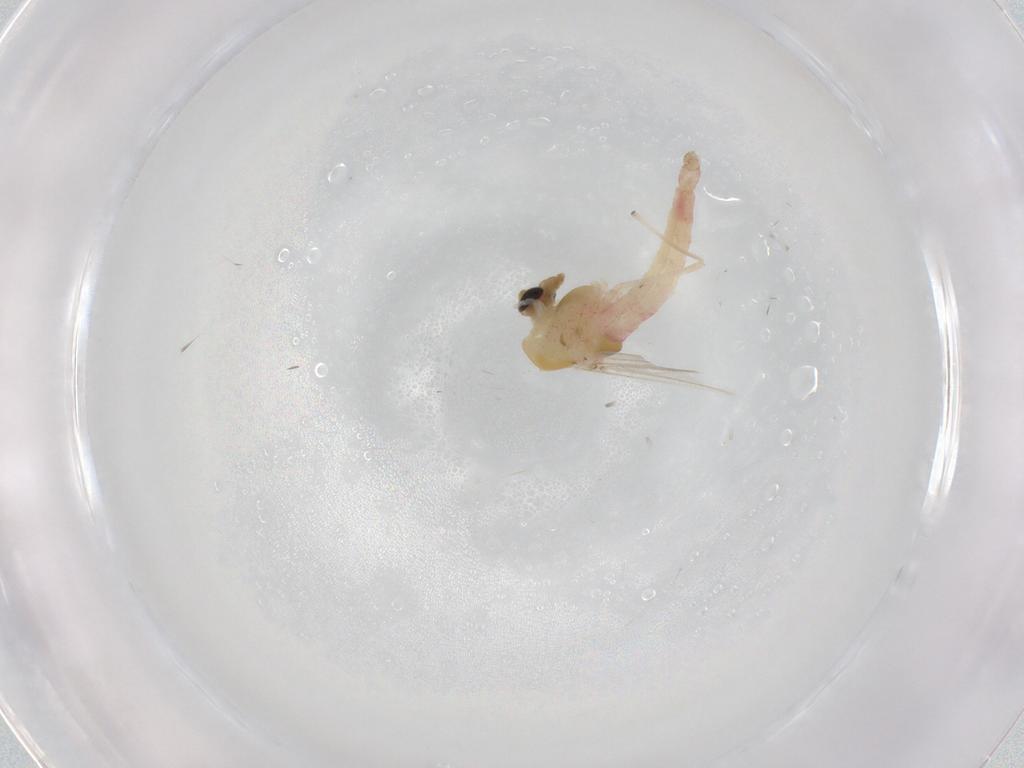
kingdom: Animalia
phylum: Arthropoda
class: Insecta
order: Diptera
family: Chironomidae
